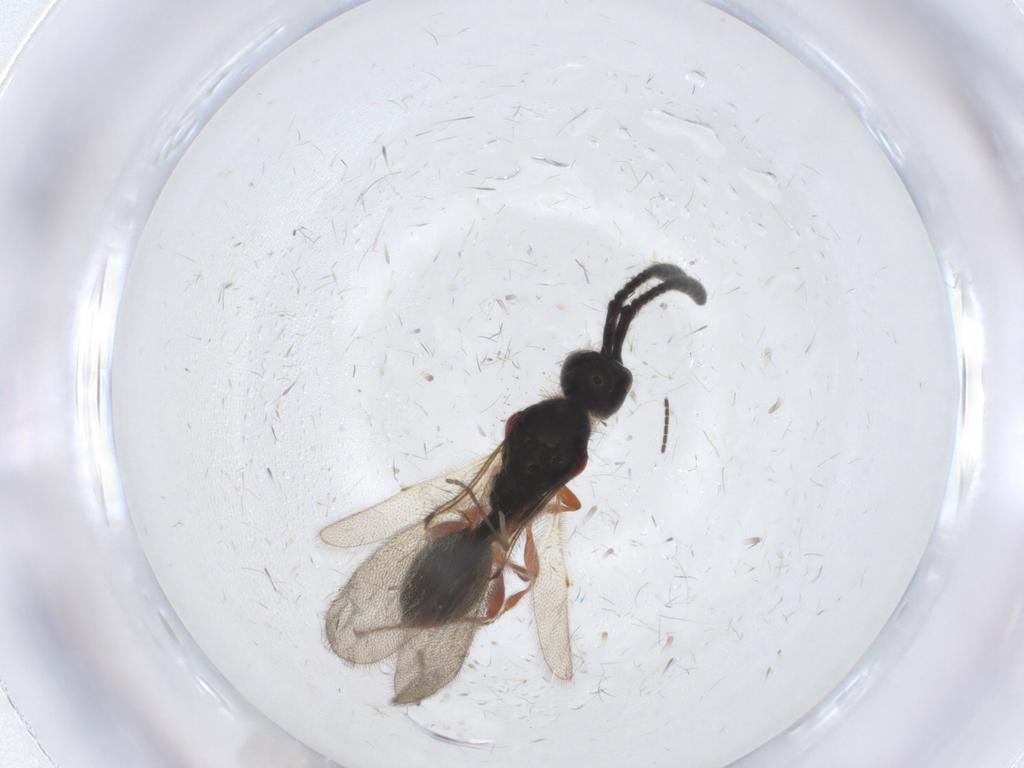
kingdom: Animalia
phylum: Arthropoda
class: Insecta
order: Hymenoptera
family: Diapriidae
